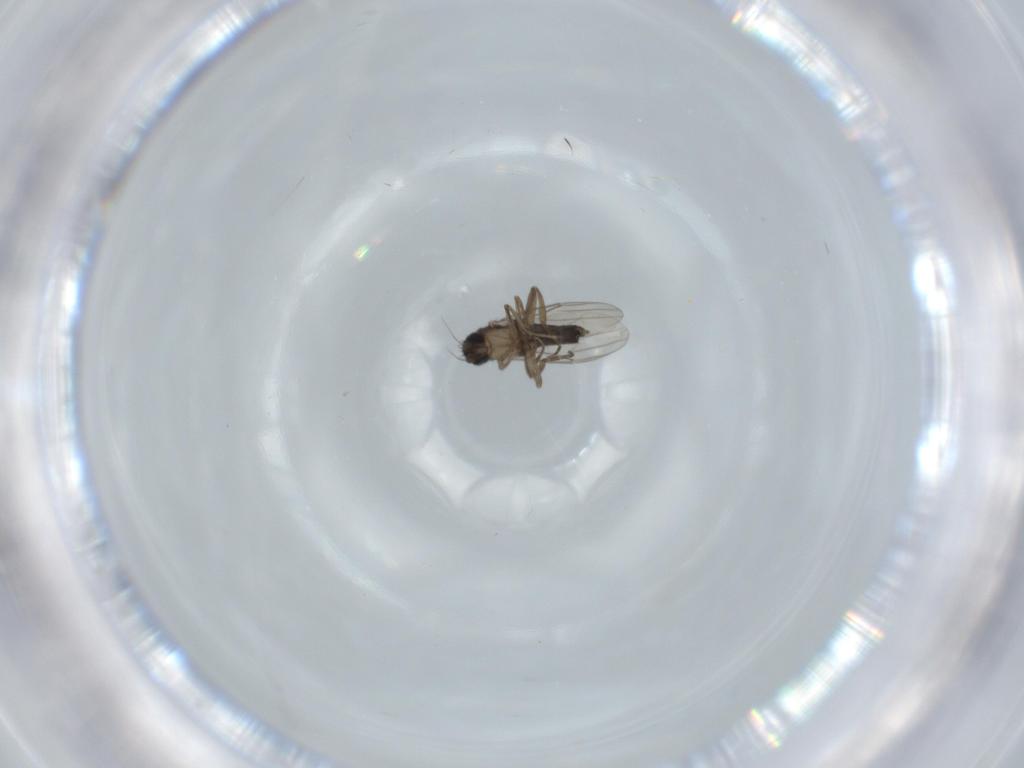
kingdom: Animalia
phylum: Arthropoda
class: Insecta
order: Diptera
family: Phoridae
